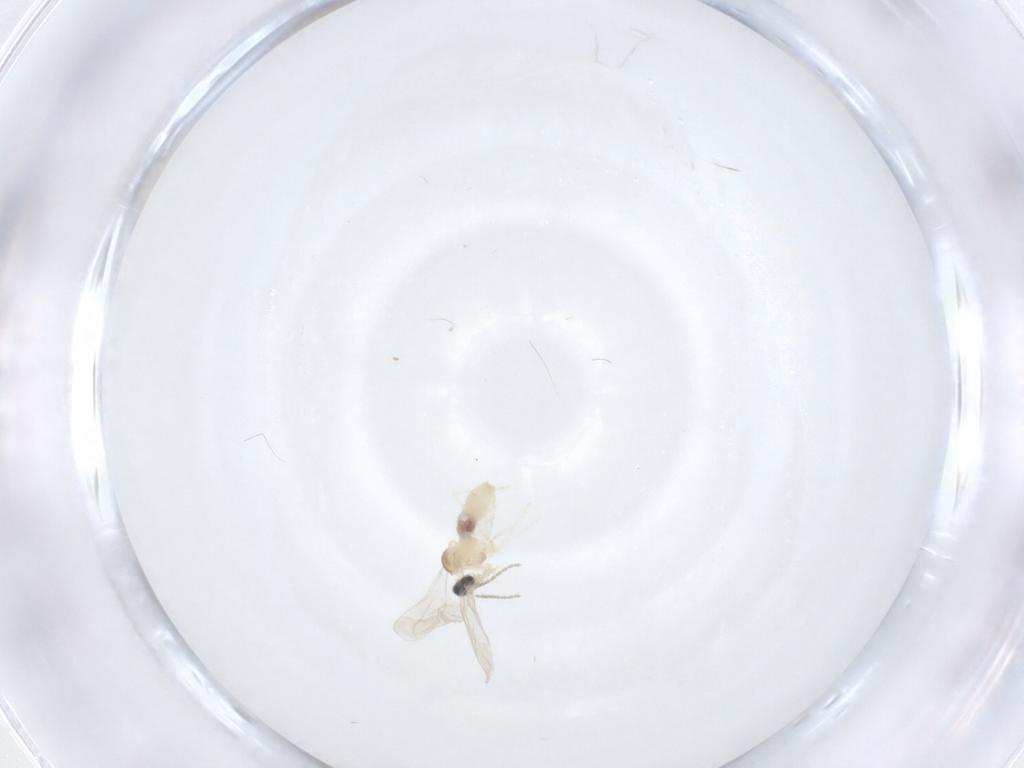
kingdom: Animalia
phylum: Arthropoda
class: Insecta
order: Diptera
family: Cecidomyiidae
